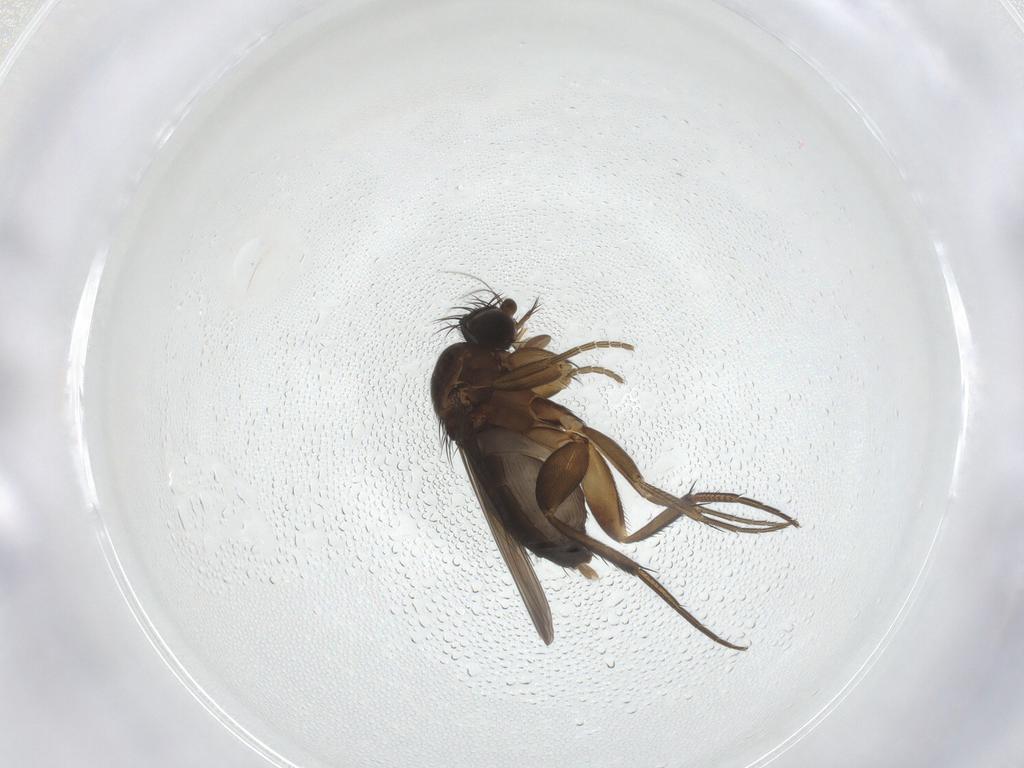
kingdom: Animalia
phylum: Arthropoda
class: Insecta
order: Diptera
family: Phoridae
